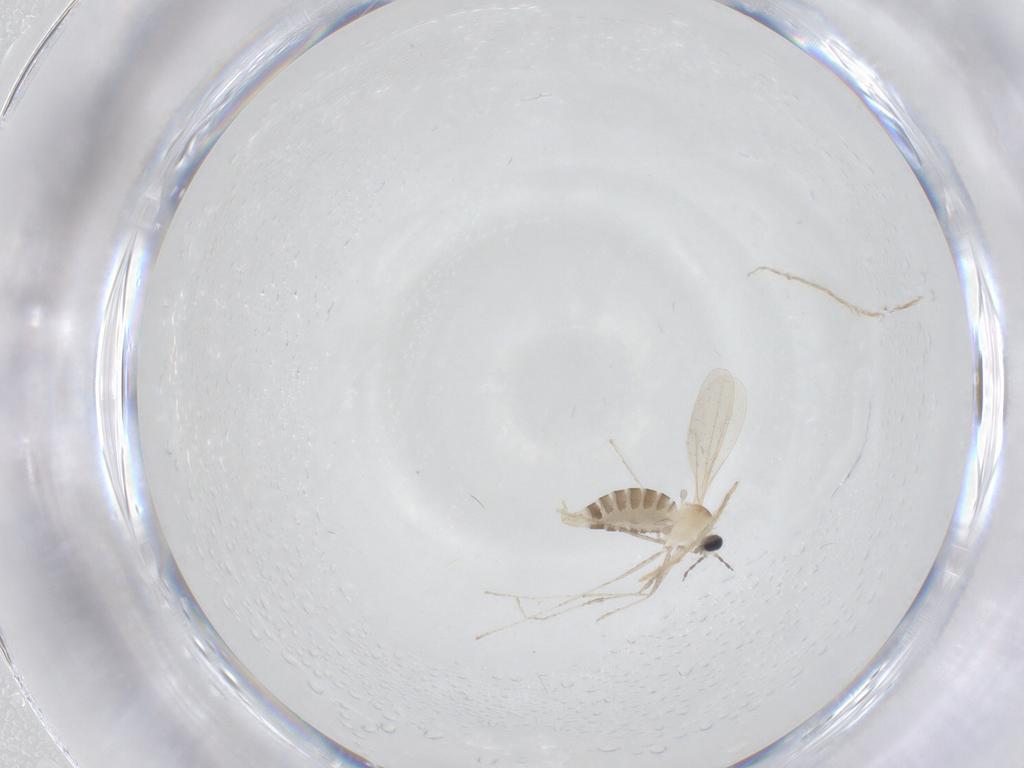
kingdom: Animalia
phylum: Arthropoda
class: Insecta
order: Diptera
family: Chironomidae
